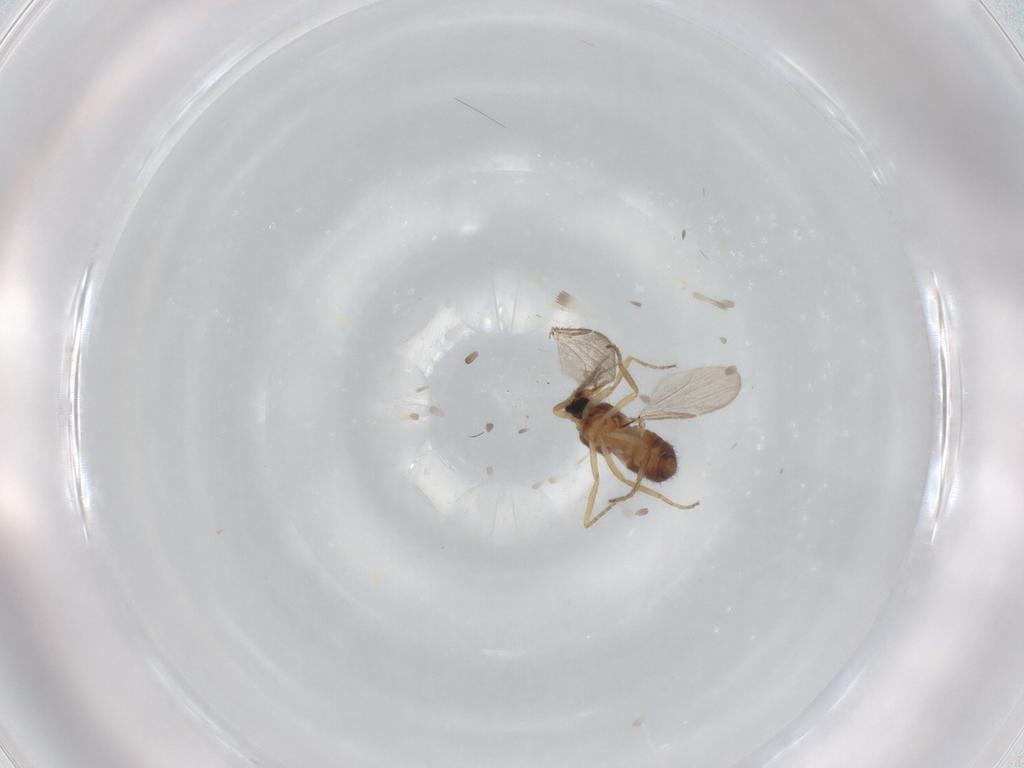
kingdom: Animalia
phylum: Arthropoda
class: Insecta
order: Diptera
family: Ceratopogonidae
